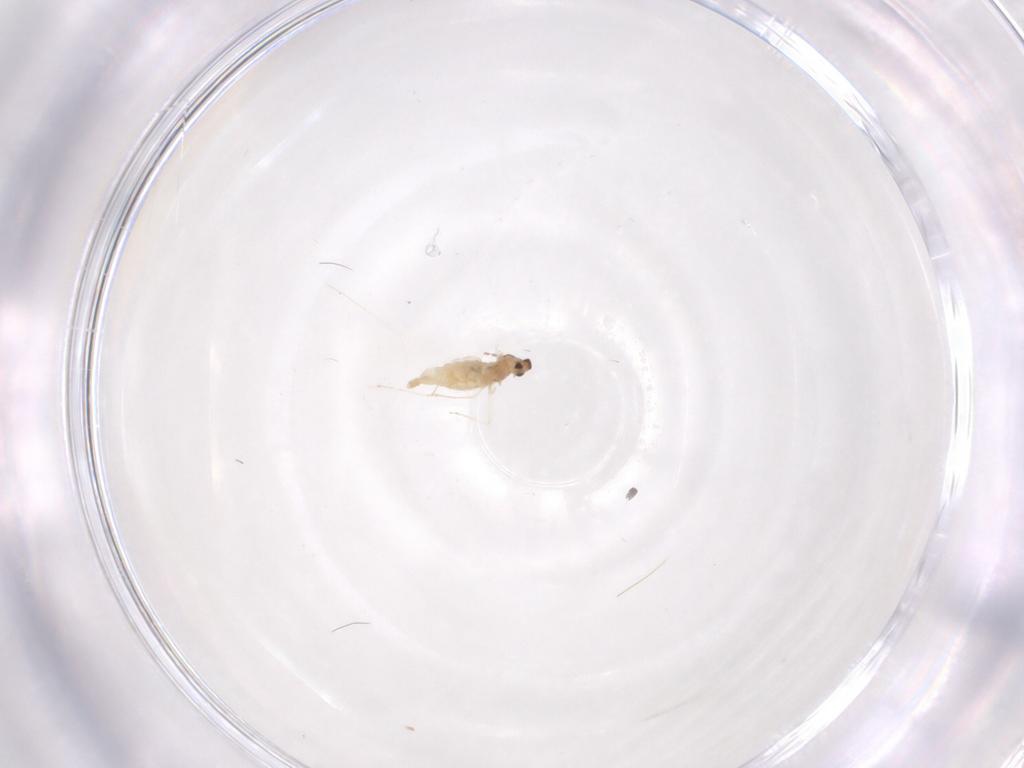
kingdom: Animalia
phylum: Arthropoda
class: Insecta
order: Diptera
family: Cecidomyiidae
